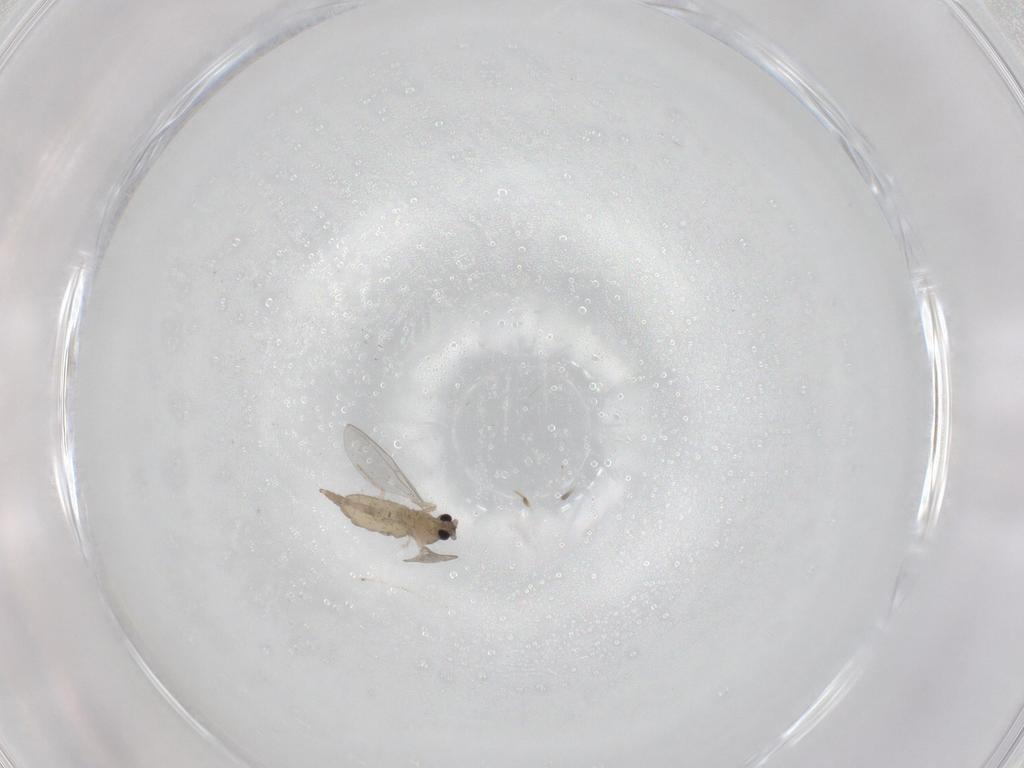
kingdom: Animalia
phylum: Arthropoda
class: Insecta
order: Diptera
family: Cecidomyiidae
